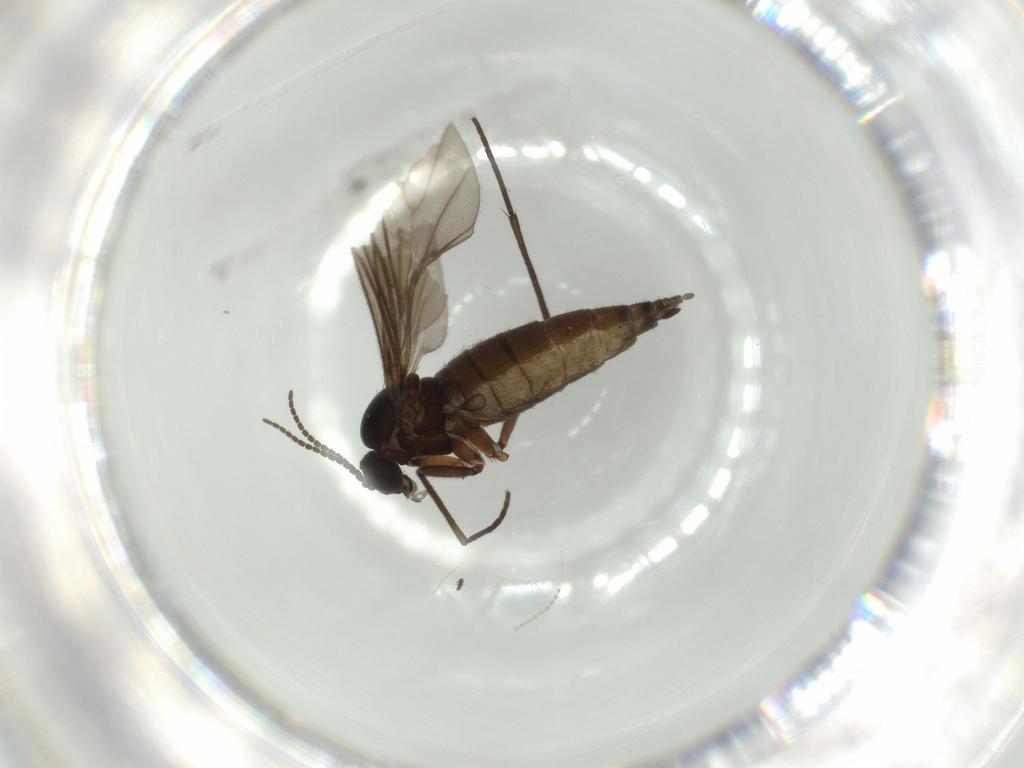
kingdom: Animalia
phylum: Arthropoda
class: Insecta
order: Diptera
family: Sciaridae
